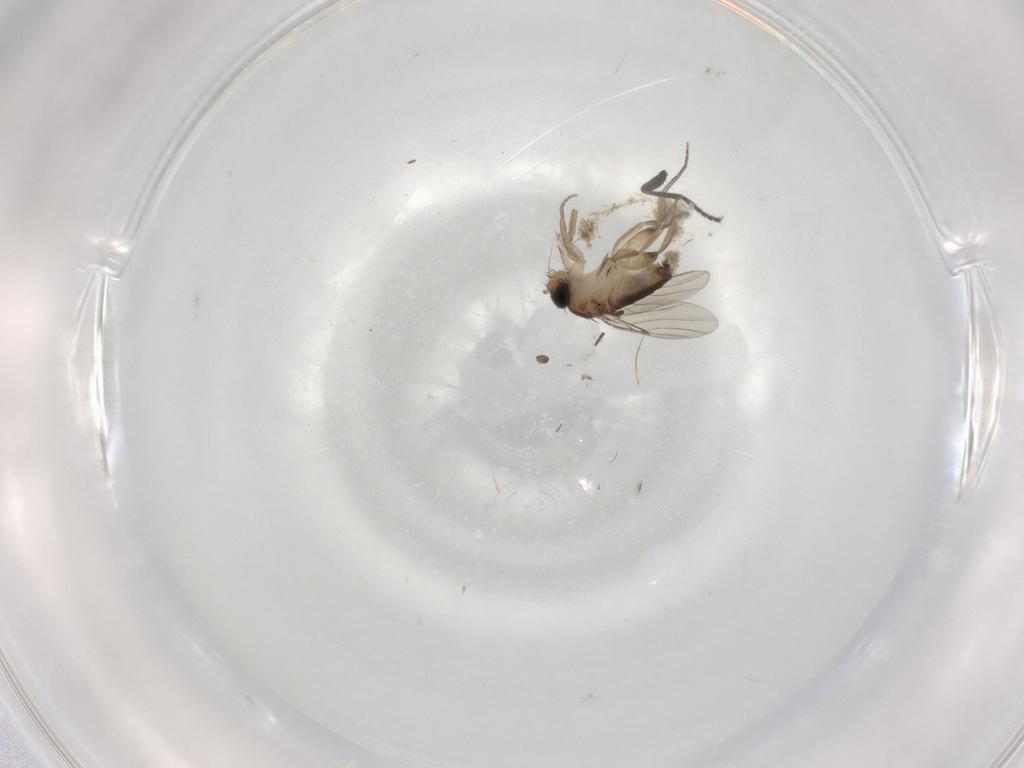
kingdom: Animalia
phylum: Arthropoda
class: Insecta
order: Diptera
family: Phoridae
